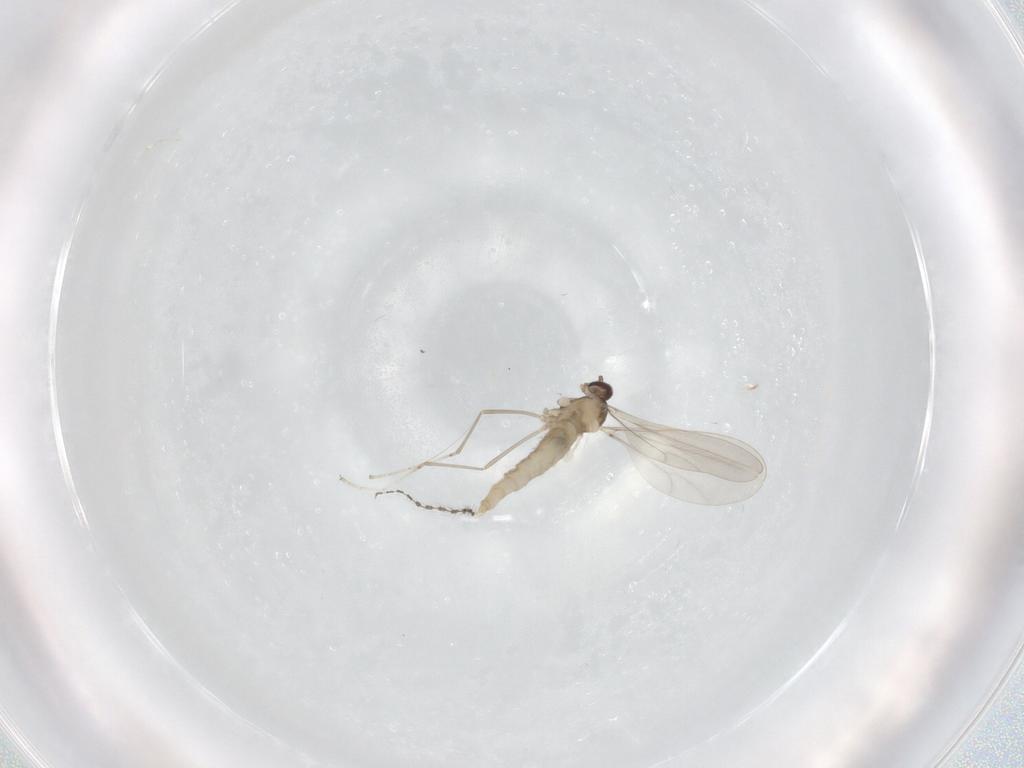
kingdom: Animalia
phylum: Arthropoda
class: Insecta
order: Diptera
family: Cecidomyiidae
